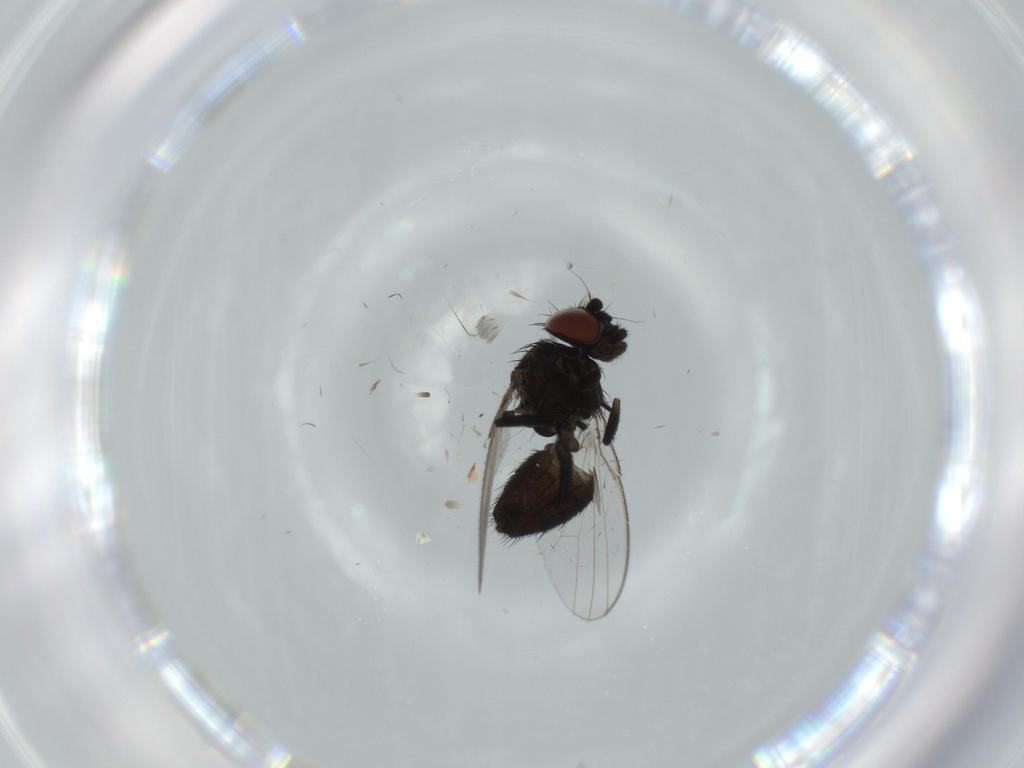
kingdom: Animalia
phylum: Arthropoda
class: Insecta
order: Diptera
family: Milichiidae
